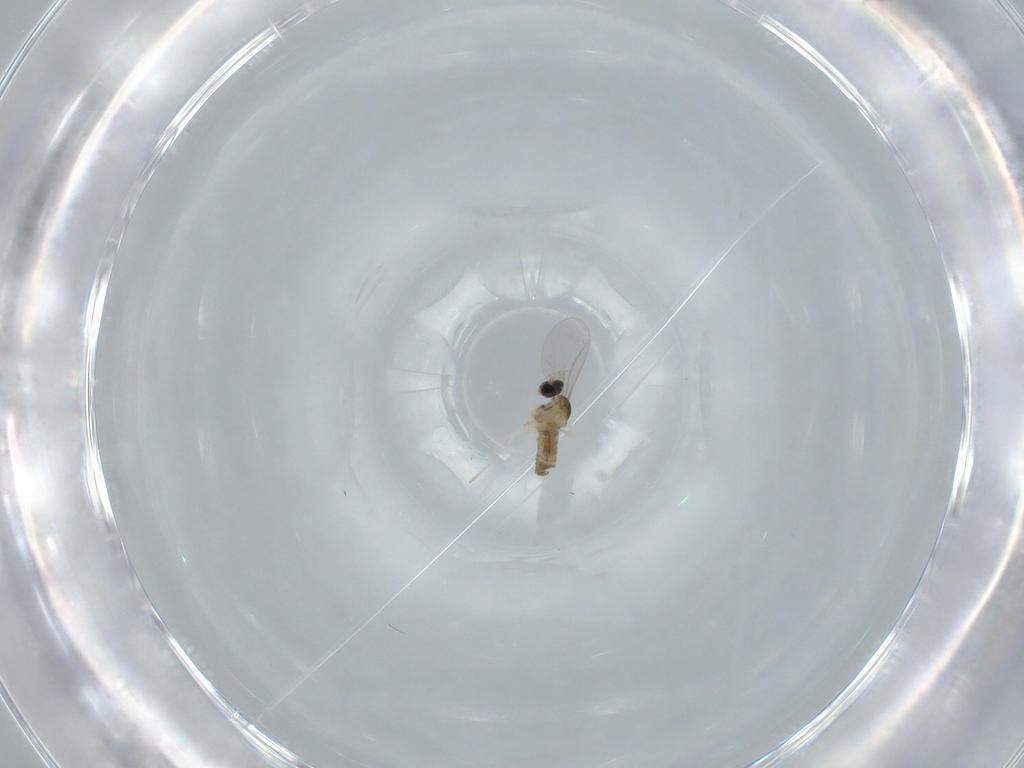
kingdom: Animalia
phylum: Arthropoda
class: Insecta
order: Diptera
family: Cecidomyiidae
